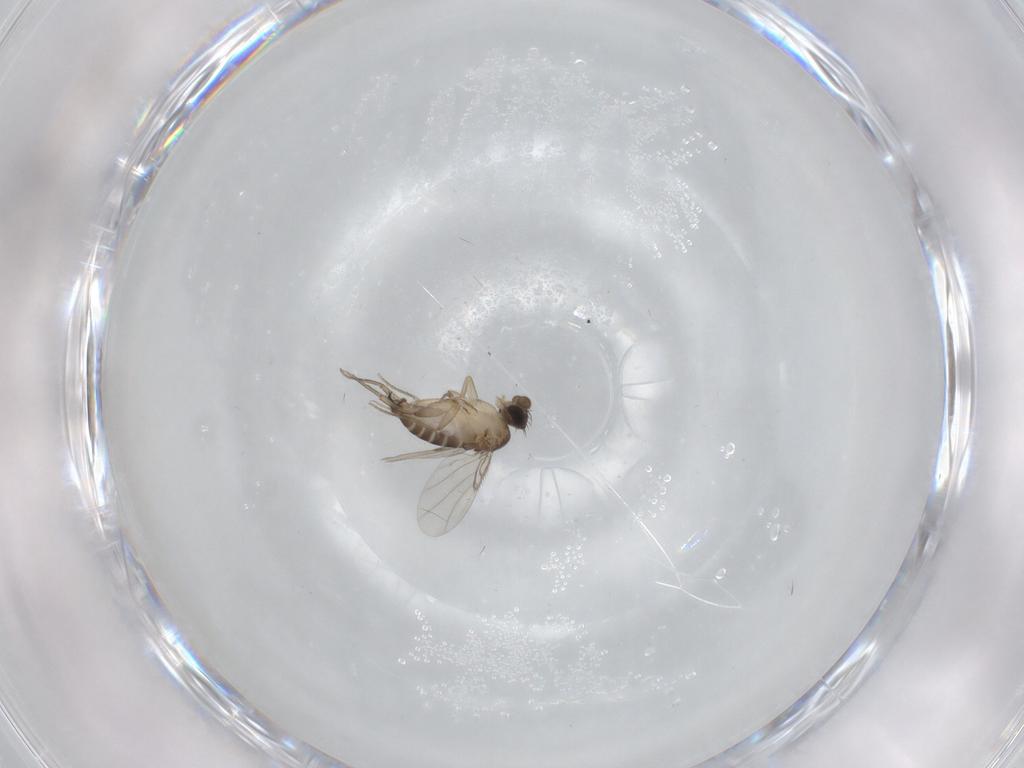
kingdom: Animalia
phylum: Arthropoda
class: Insecta
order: Diptera
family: Phoridae
